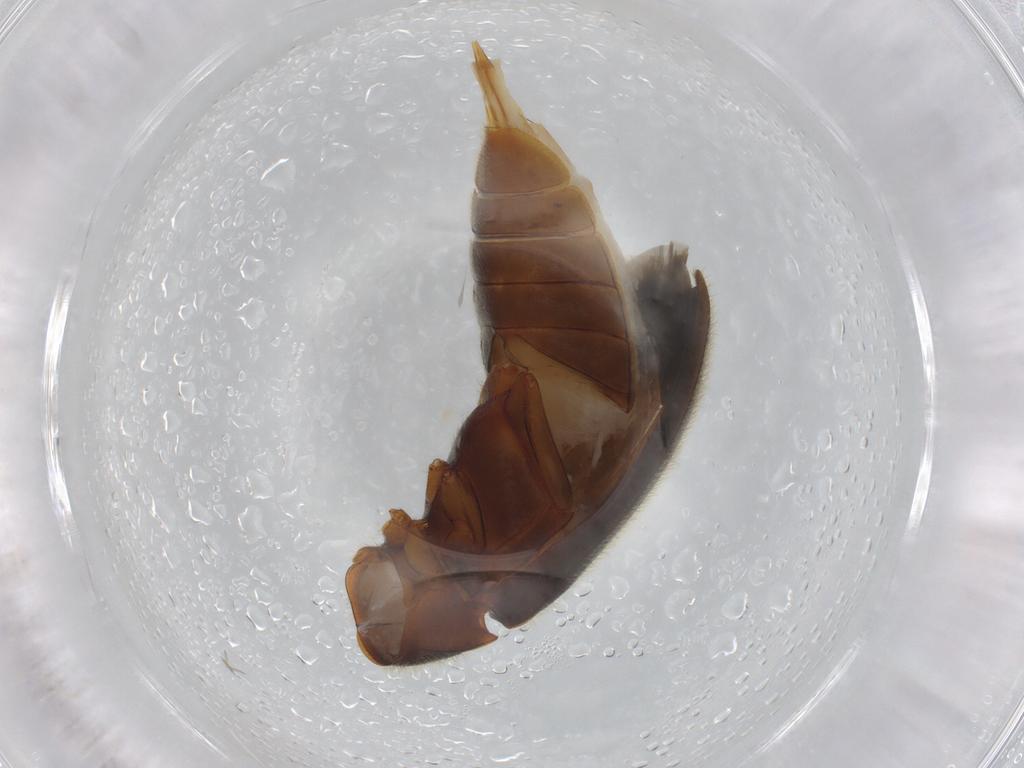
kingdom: Animalia
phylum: Arthropoda
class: Insecta
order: Coleoptera
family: Ptilodactylidae
